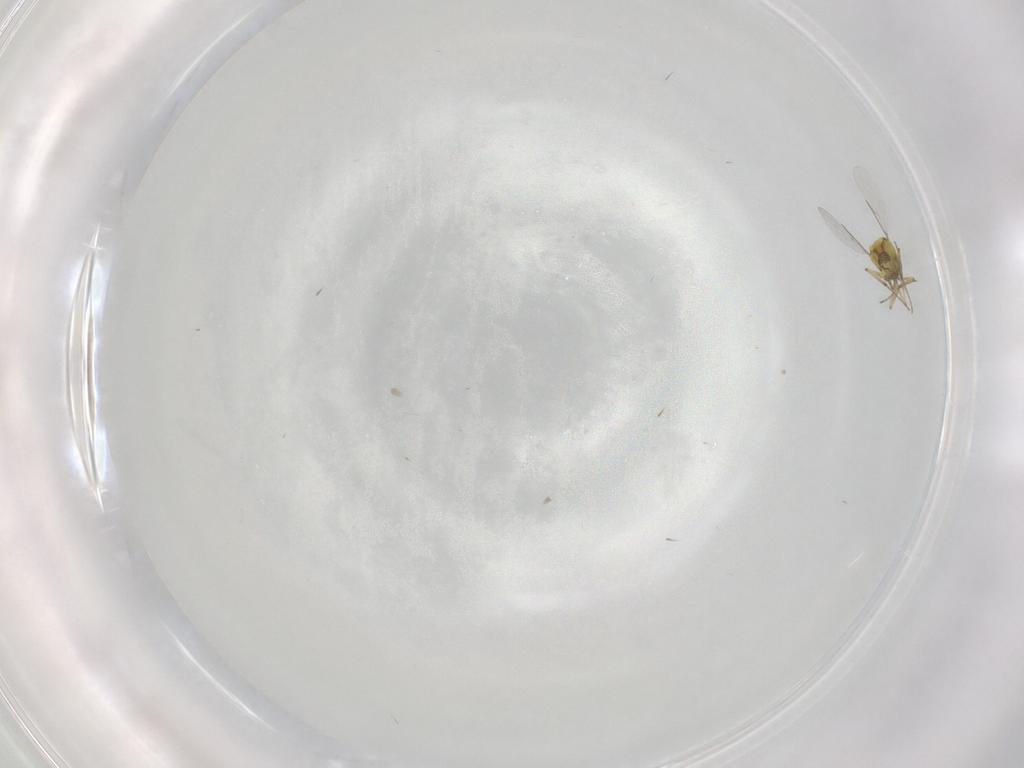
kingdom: Animalia
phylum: Arthropoda
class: Insecta
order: Diptera
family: Ceratopogonidae
